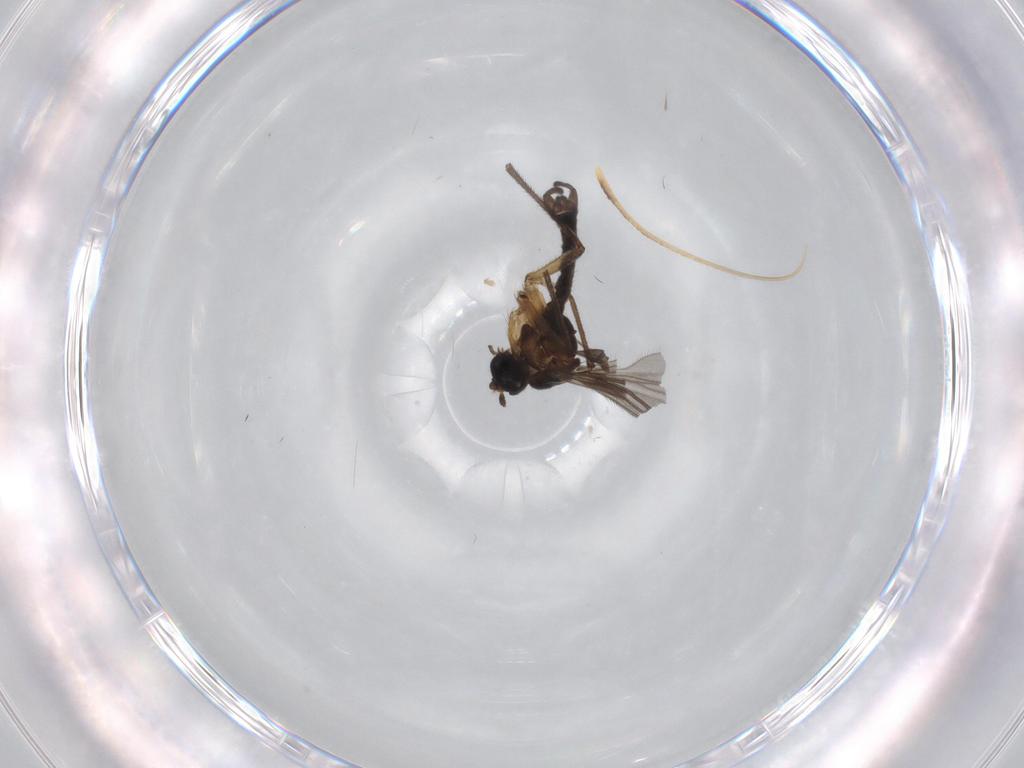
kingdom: Animalia
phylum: Arthropoda
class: Insecta
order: Diptera
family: Sciaridae
